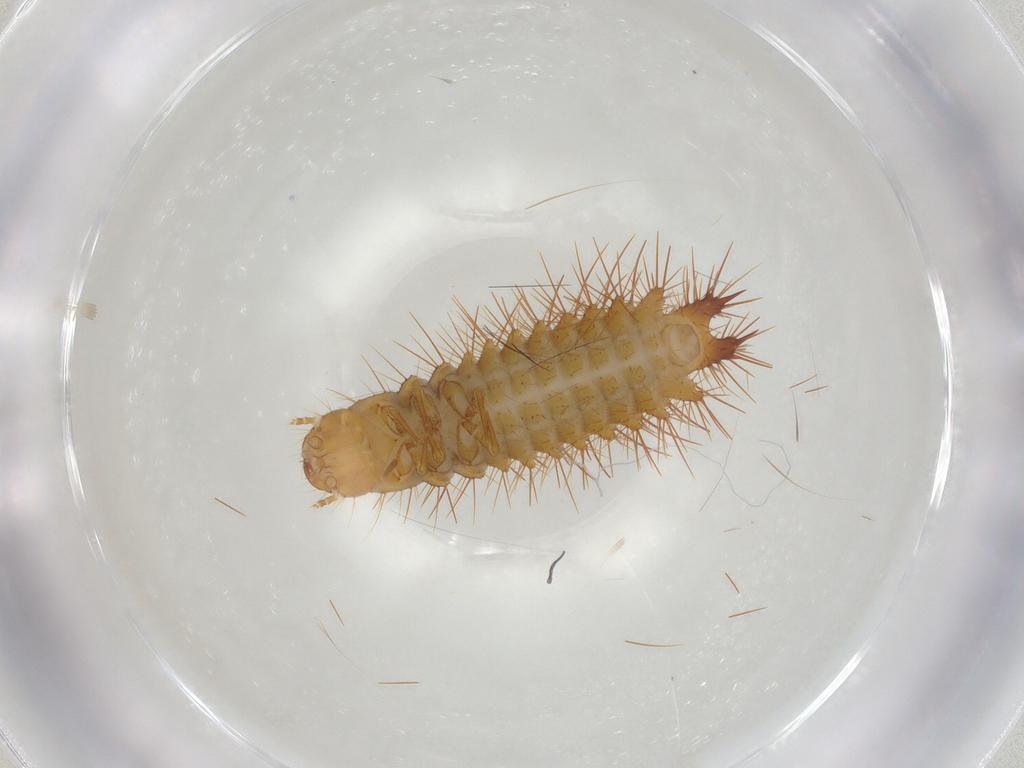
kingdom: Animalia
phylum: Arthropoda
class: Insecta
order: Coleoptera
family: Elateridae
